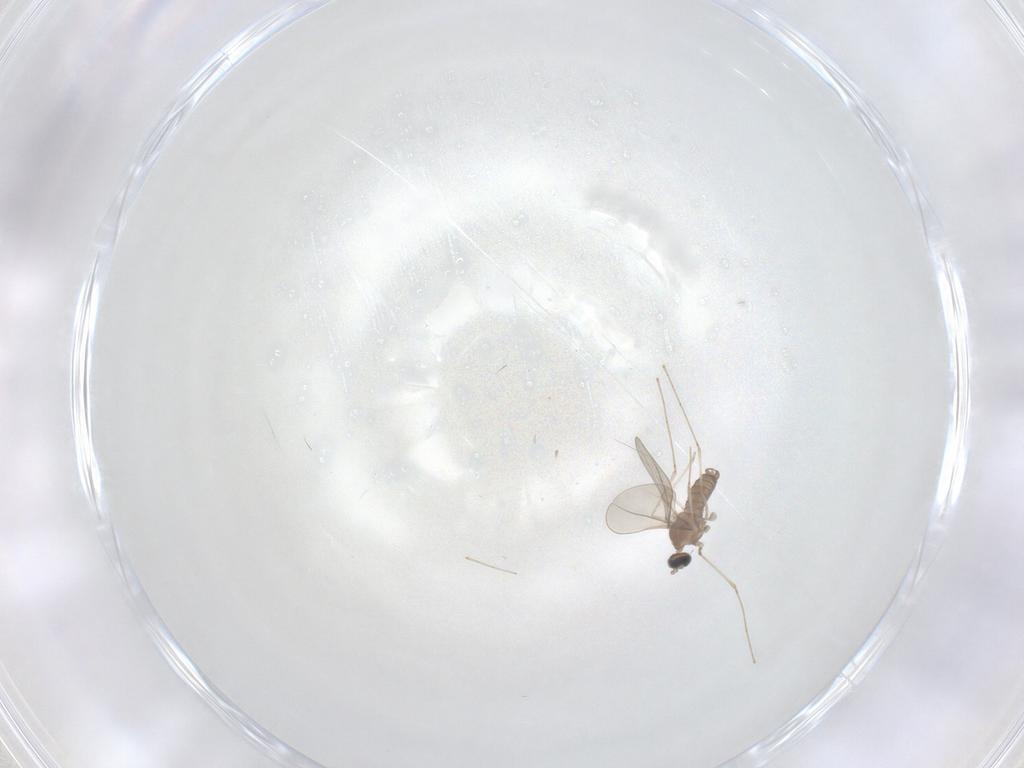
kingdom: Animalia
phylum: Arthropoda
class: Insecta
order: Diptera
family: Cecidomyiidae
